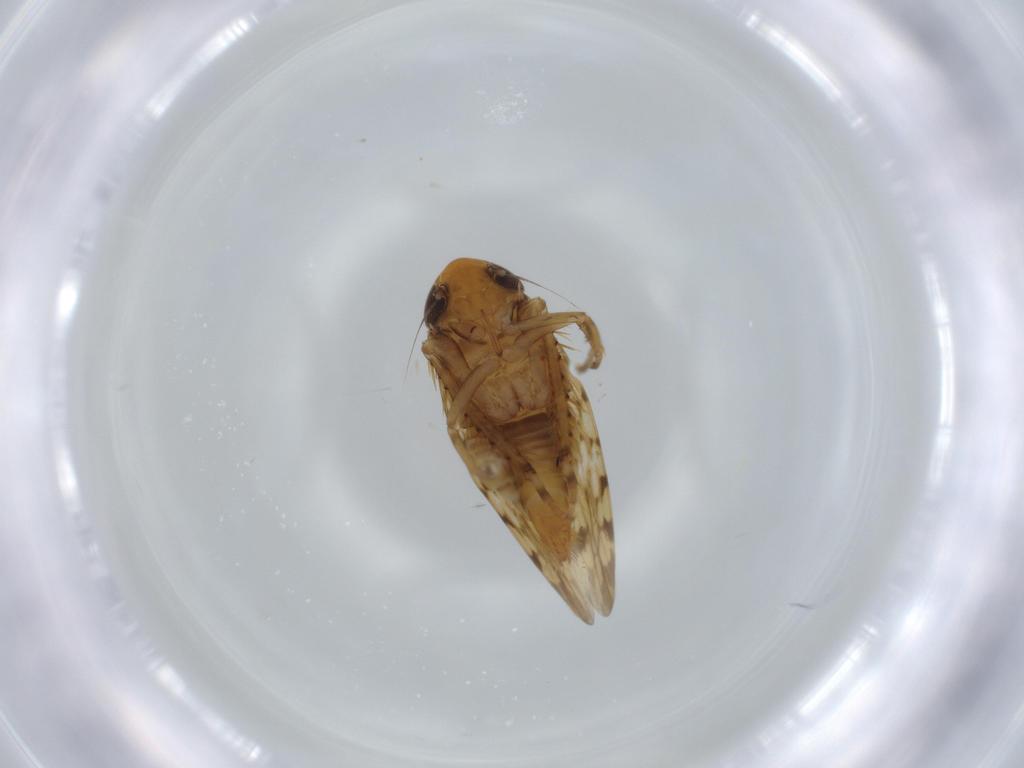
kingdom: Animalia
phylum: Arthropoda
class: Insecta
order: Hemiptera
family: Cicadellidae
